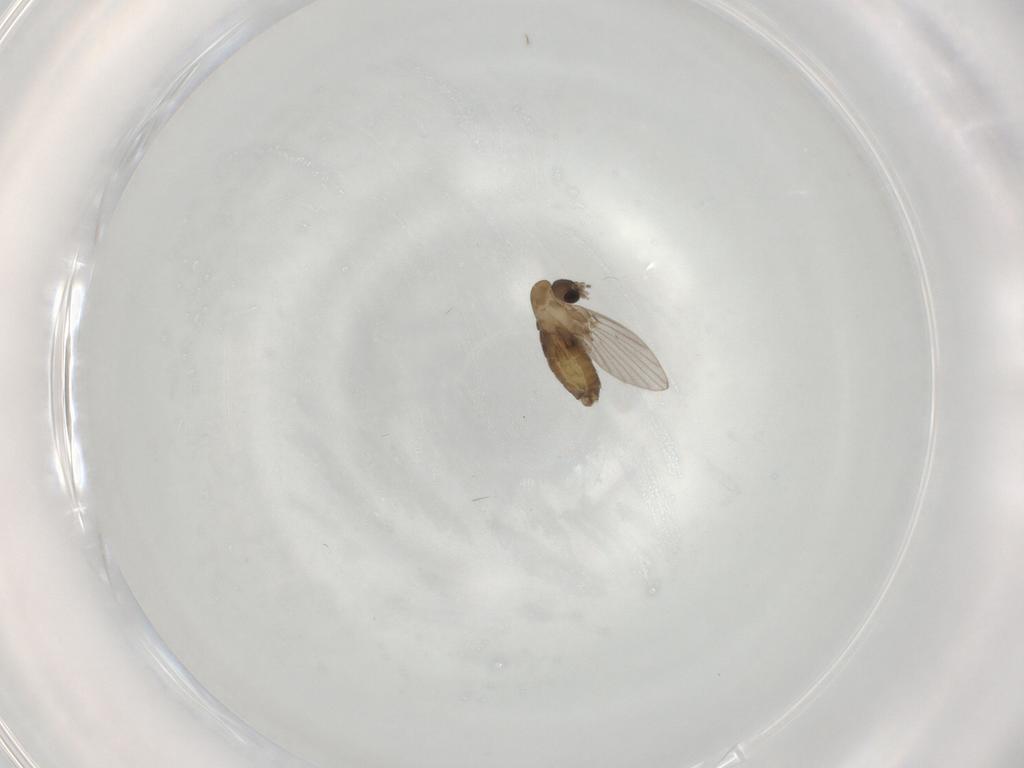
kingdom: Animalia
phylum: Arthropoda
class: Insecta
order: Diptera
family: Psychodidae
